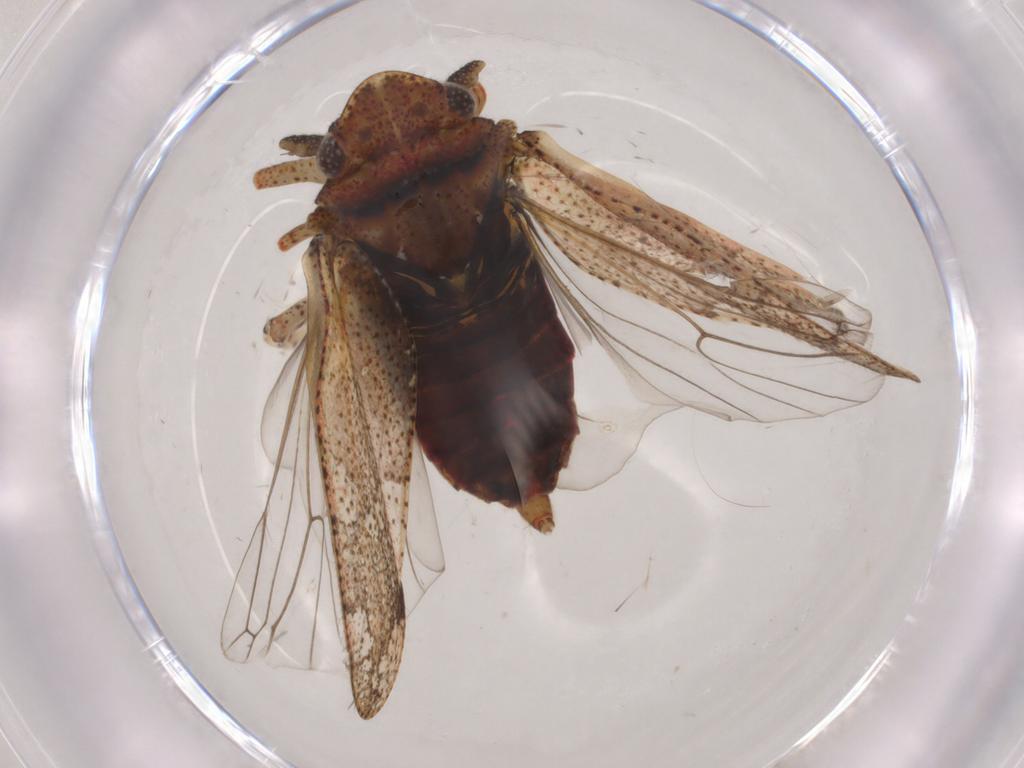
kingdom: Animalia
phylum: Arthropoda
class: Insecta
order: Hemiptera
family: Tettigometridae
